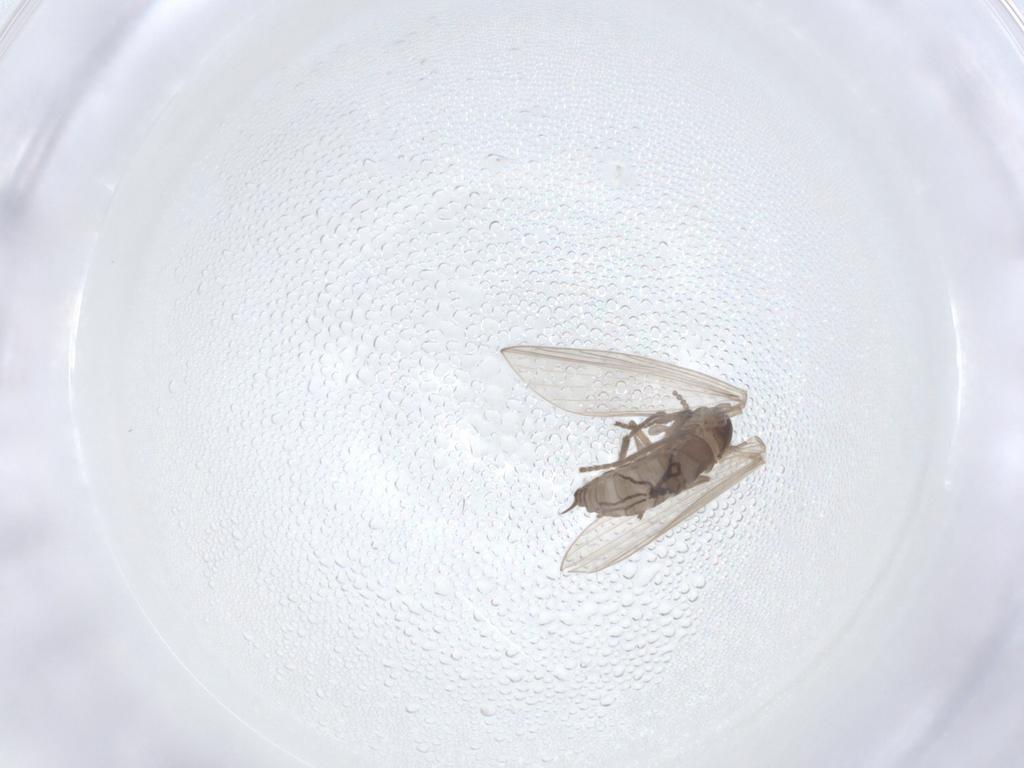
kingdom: Animalia
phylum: Arthropoda
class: Insecta
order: Diptera
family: Psychodidae
